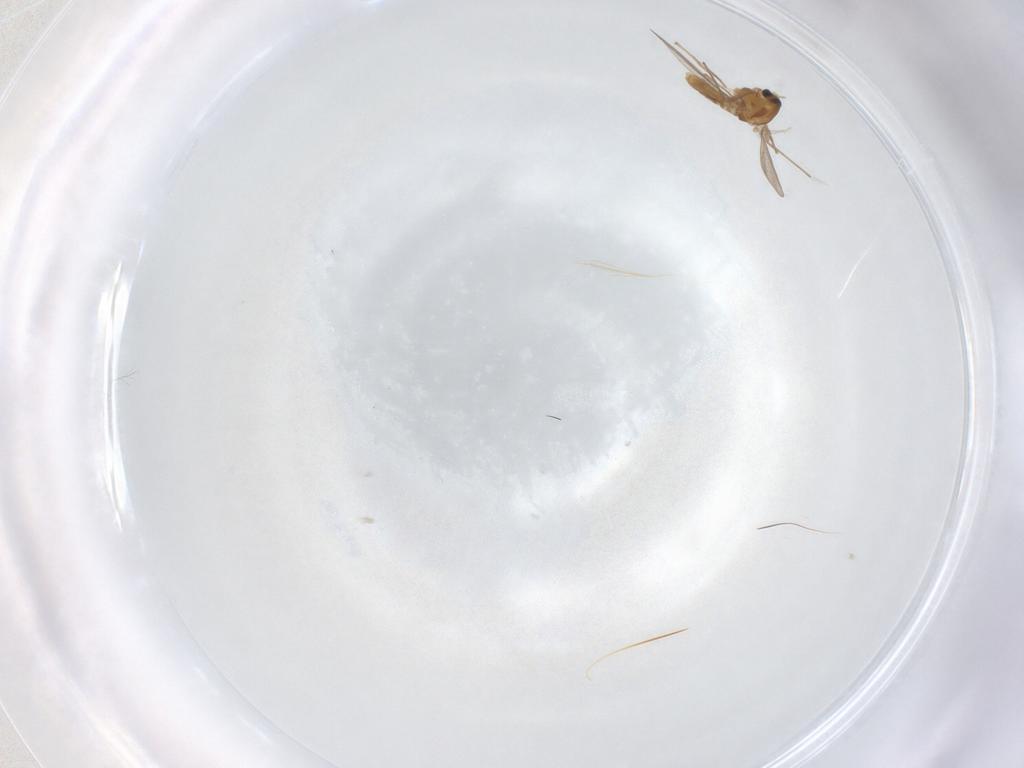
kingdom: Animalia
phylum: Arthropoda
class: Insecta
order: Diptera
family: Chironomidae
